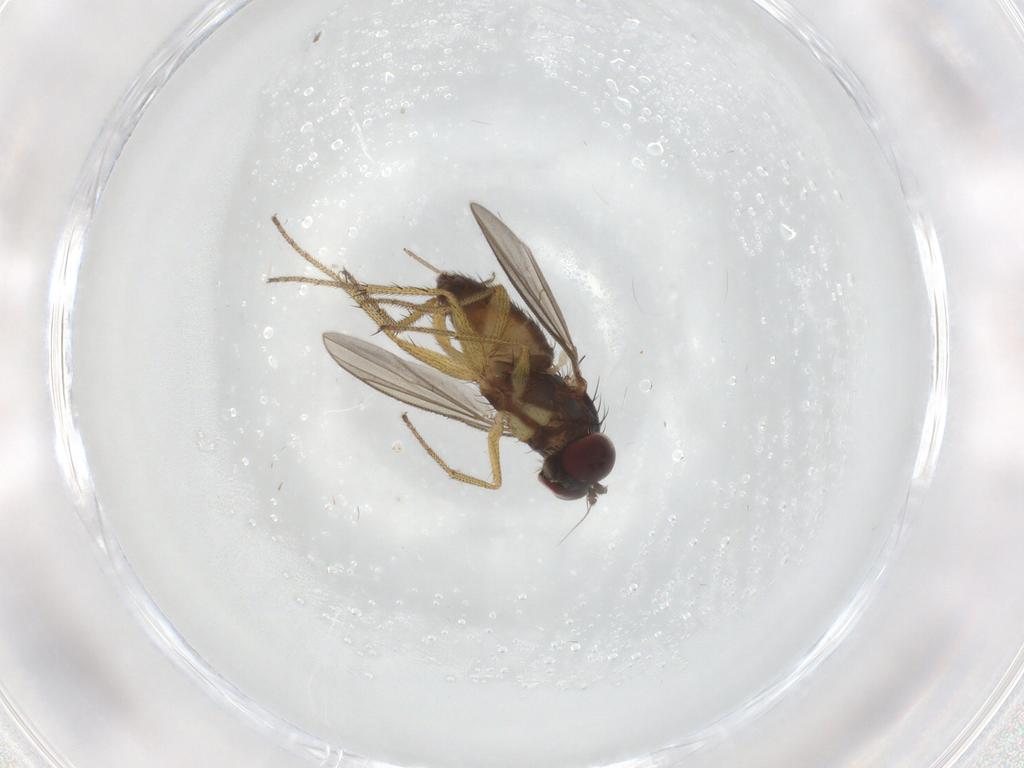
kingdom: Animalia
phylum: Arthropoda
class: Insecta
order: Diptera
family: Dolichopodidae
